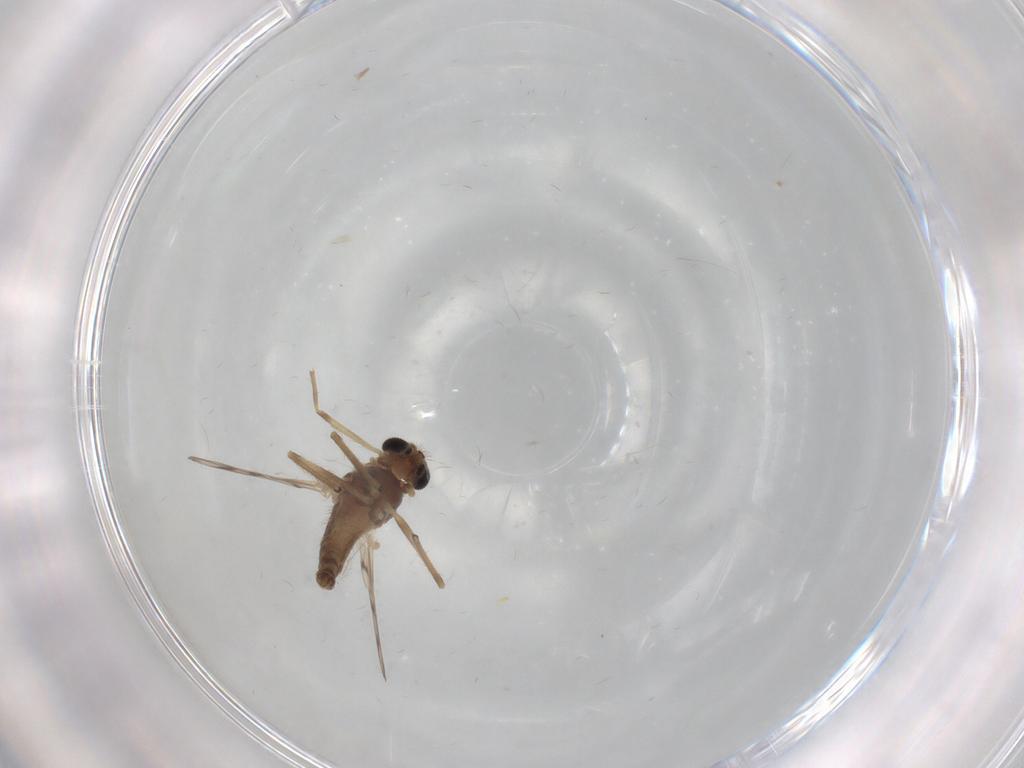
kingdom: Animalia
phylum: Arthropoda
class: Insecta
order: Diptera
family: Chironomidae
